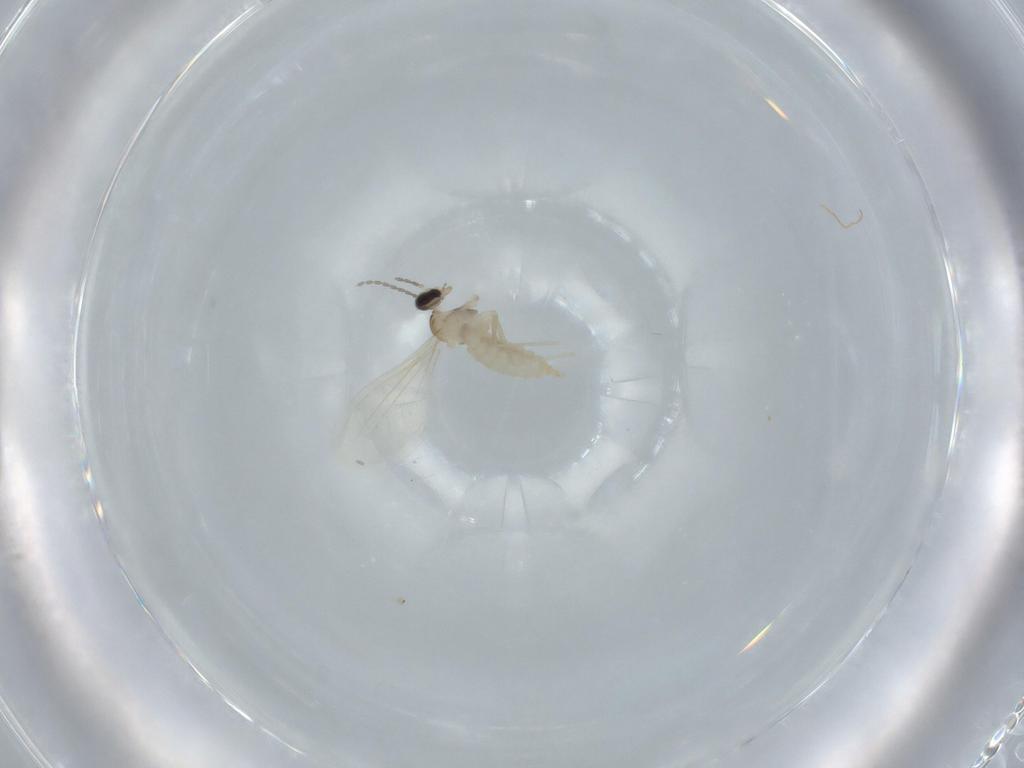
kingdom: Animalia
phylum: Arthropoda
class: Insecta
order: Diptera
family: Cecidomyiidae
